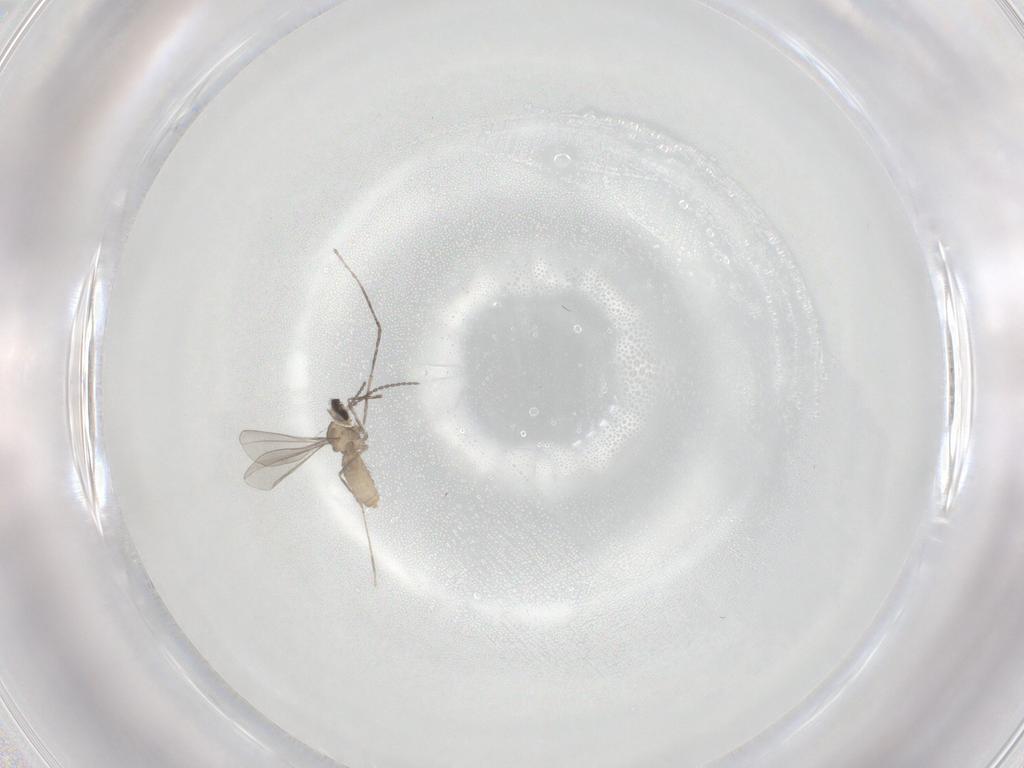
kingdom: Animalia
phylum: Arthropoda
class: Insecta
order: Diptera
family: Cecidomyiidae
